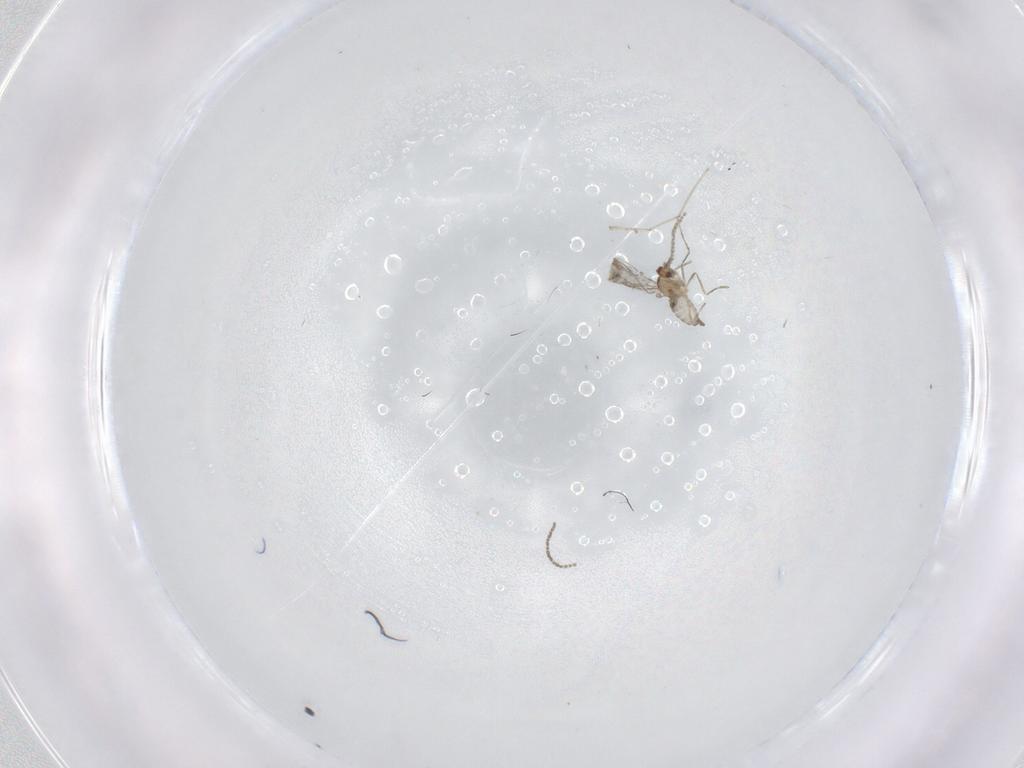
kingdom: Animalia
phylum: Arthropoda
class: Insecta
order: Diptera
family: Cecidomyiidae
